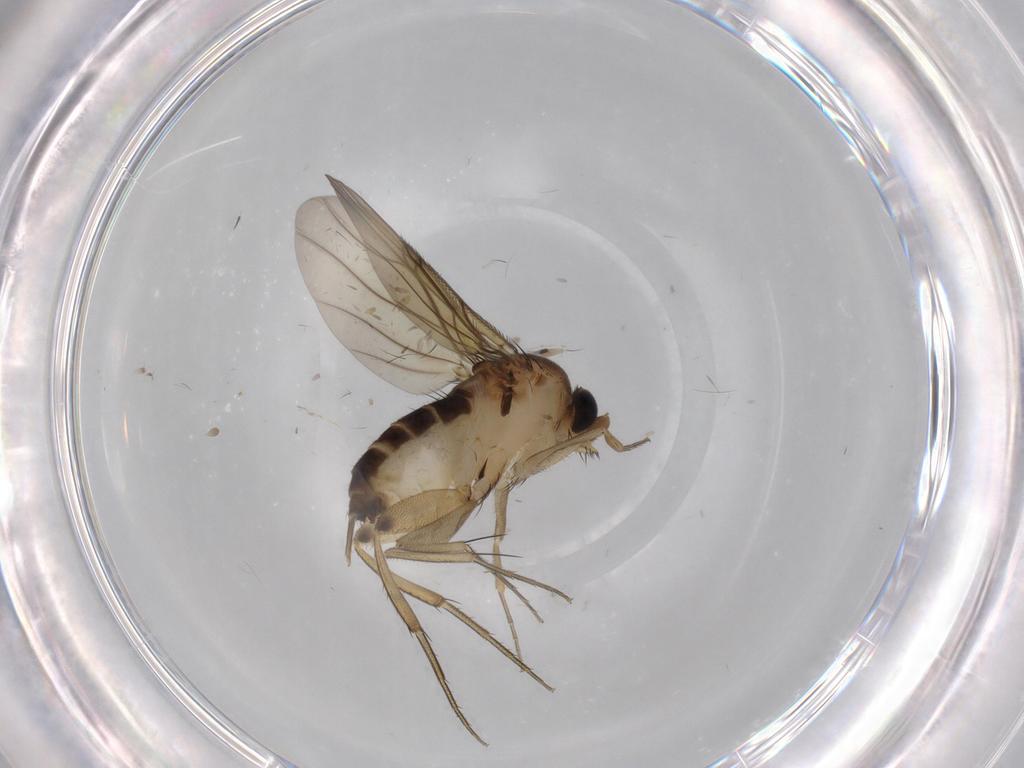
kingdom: Animalia
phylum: Arthropoda
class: Insecta
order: Diptera
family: Phoridae
